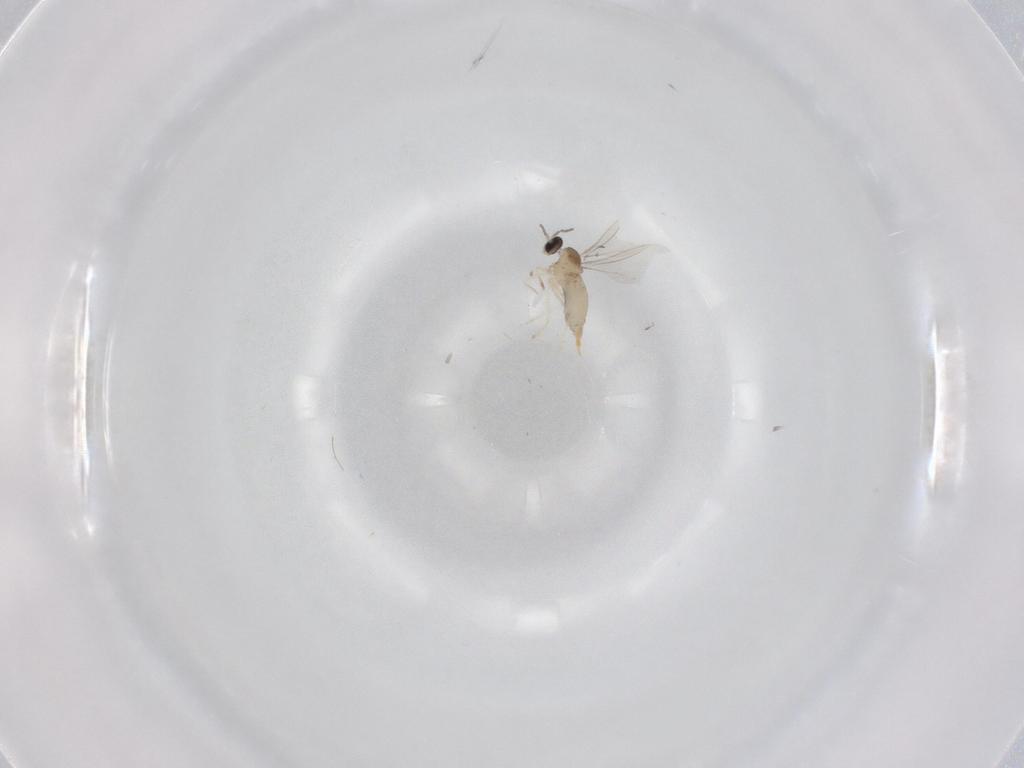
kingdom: Animalia
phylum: Arthropoda
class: Insecta
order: Diptera
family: Cecidomyiidae
